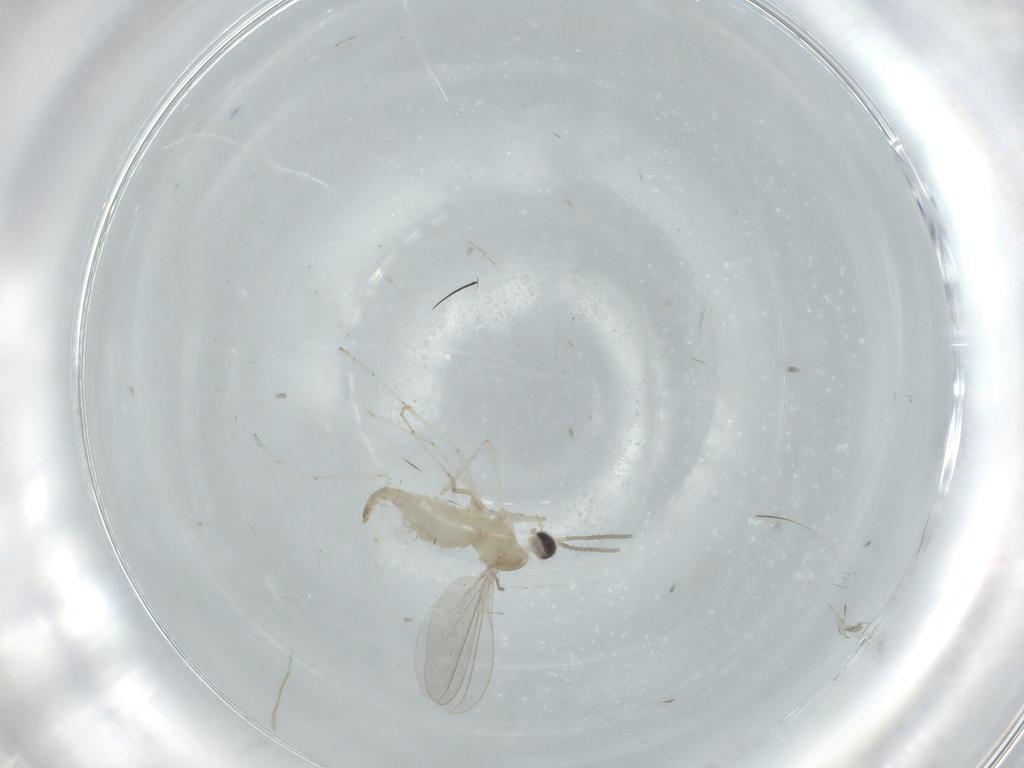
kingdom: Animalia
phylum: Arthropoda
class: Insecta
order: Diptera
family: Cecidomyiidae
